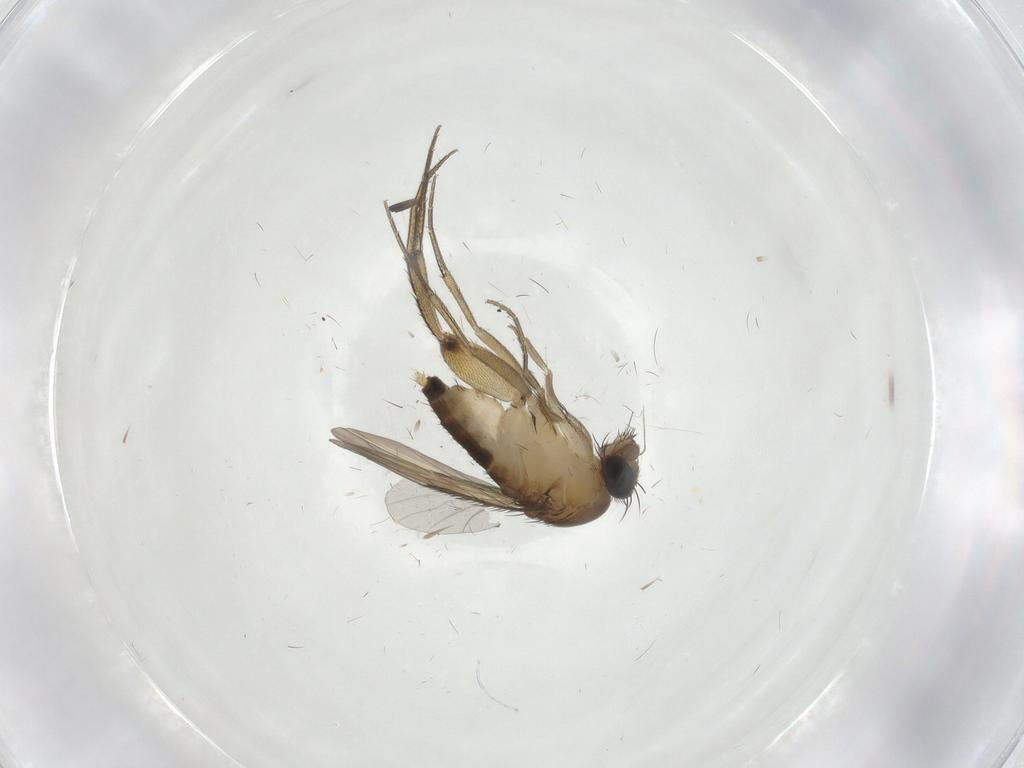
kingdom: Animalia
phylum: Arthropoda
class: Insecta
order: Diptera
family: Phoridae
